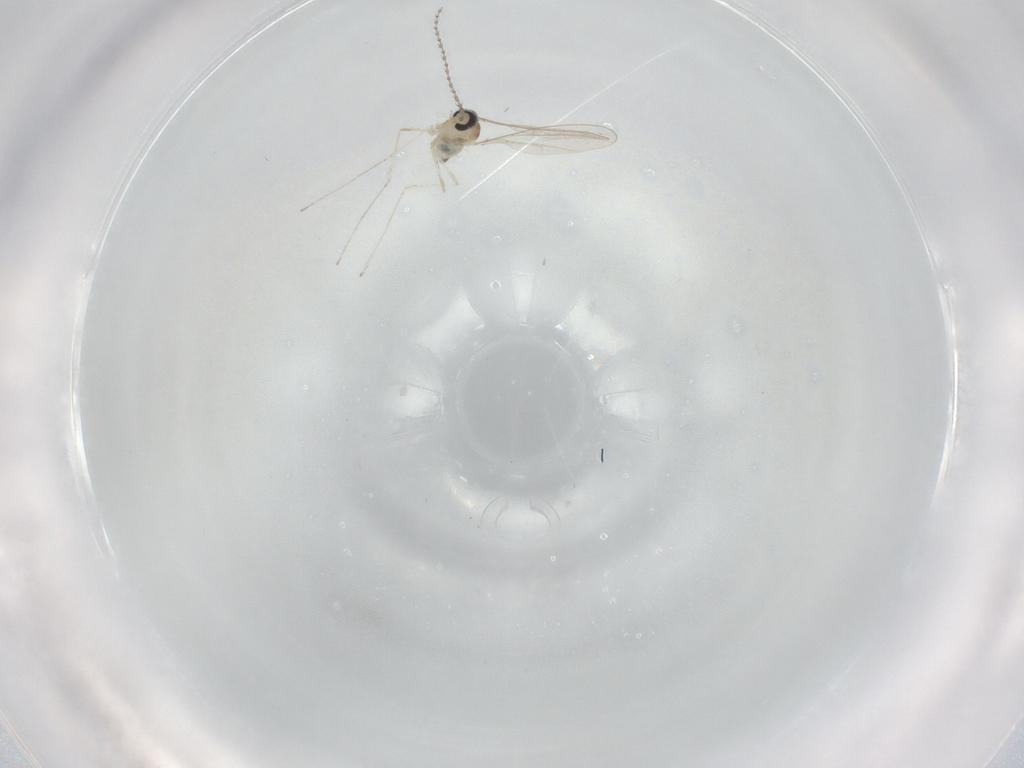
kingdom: Animalia
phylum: Arthropoda
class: Insecta
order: Diptera
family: Cecidomyiidae
